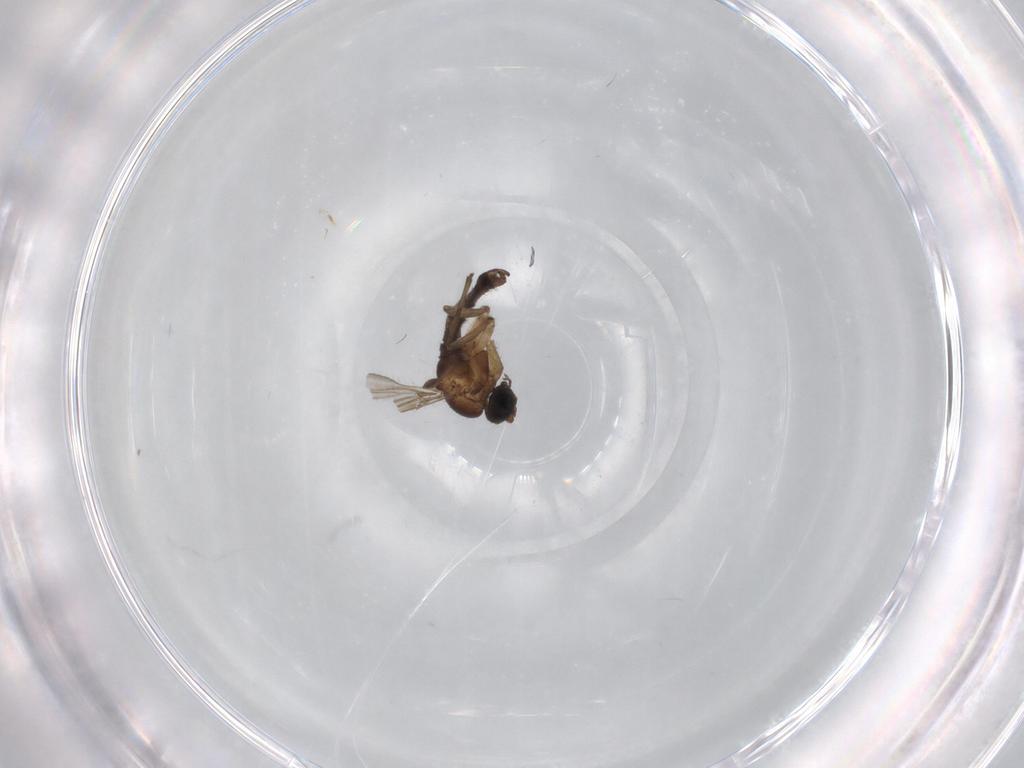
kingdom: Animalia
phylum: Arthropoda
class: Insecta
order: Diptera
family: Cecidomyiidae
